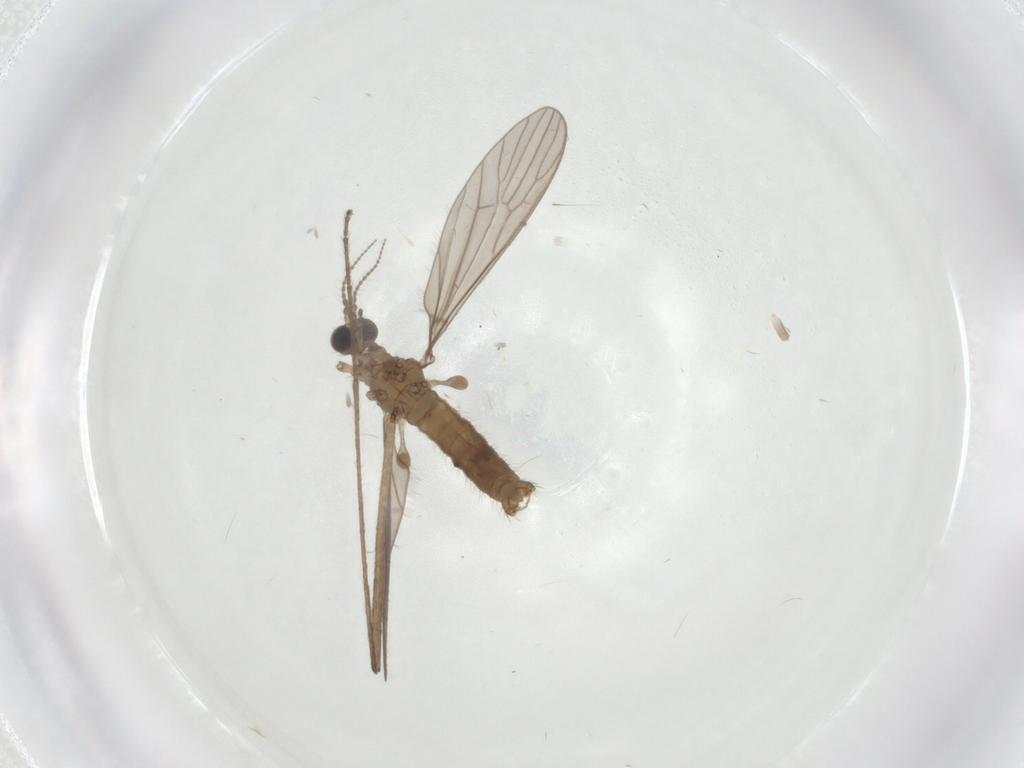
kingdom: Animalia
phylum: Arthropoda
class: Insecta
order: Diptera
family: Limoniidae
